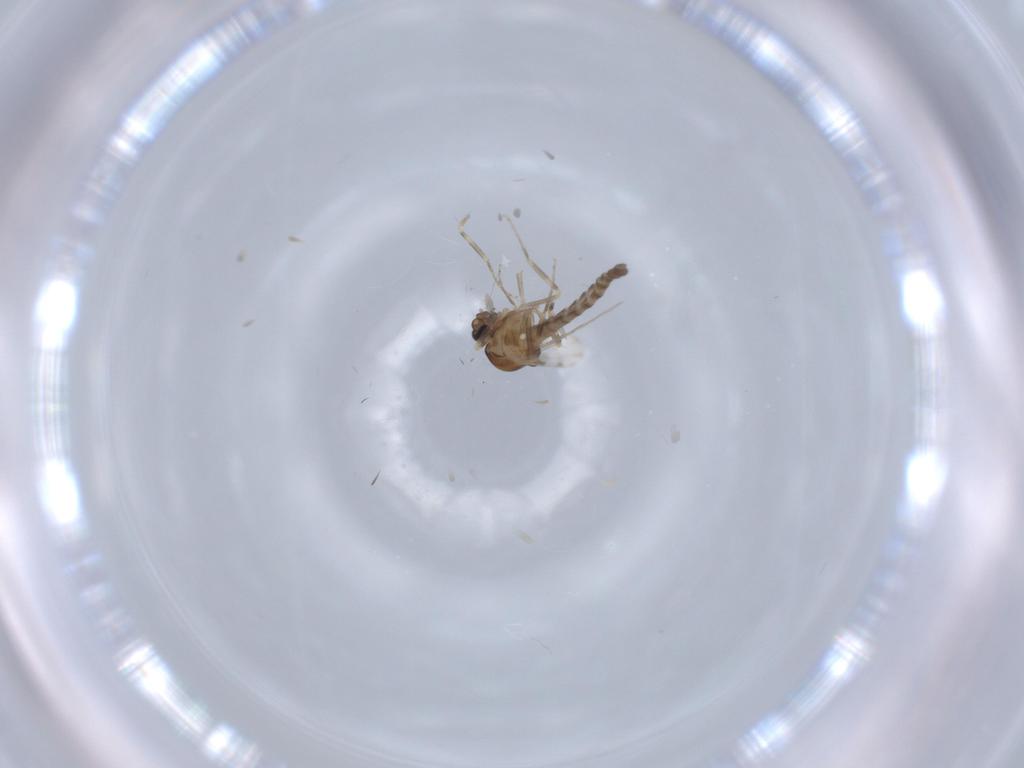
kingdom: Animalia
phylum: Arthropoda
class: Insecta
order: Diptera
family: Ceratopogonidae
